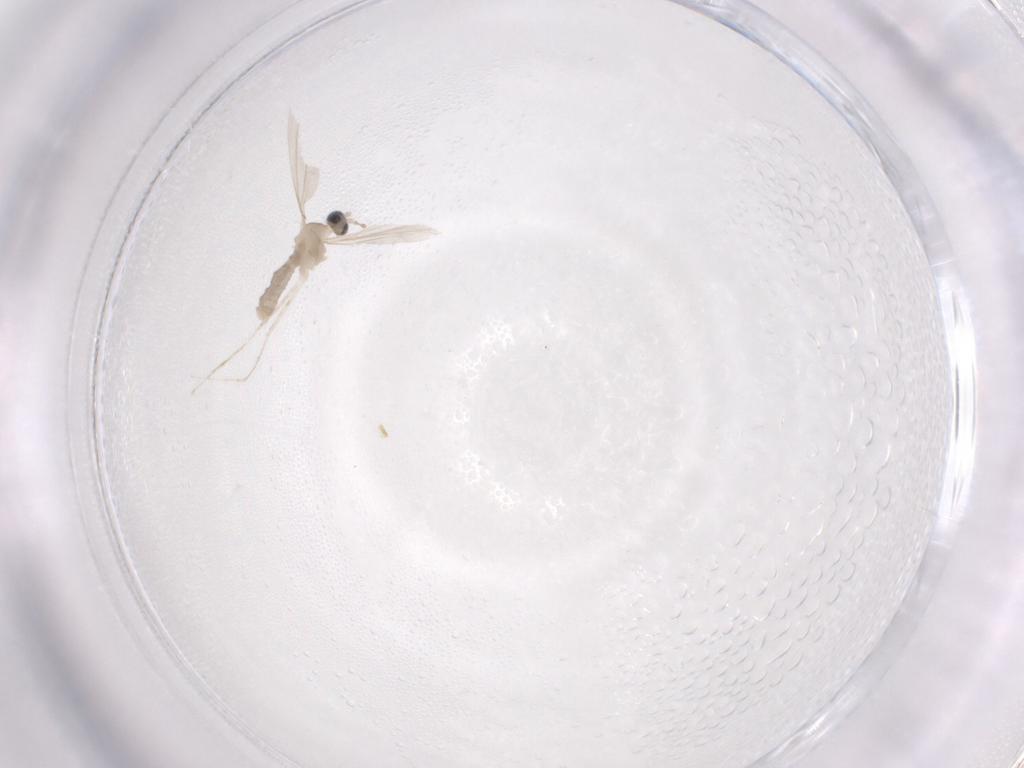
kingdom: Animalia
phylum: Arthropoda
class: Insecta
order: Diptera
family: Cecidomyiidae
